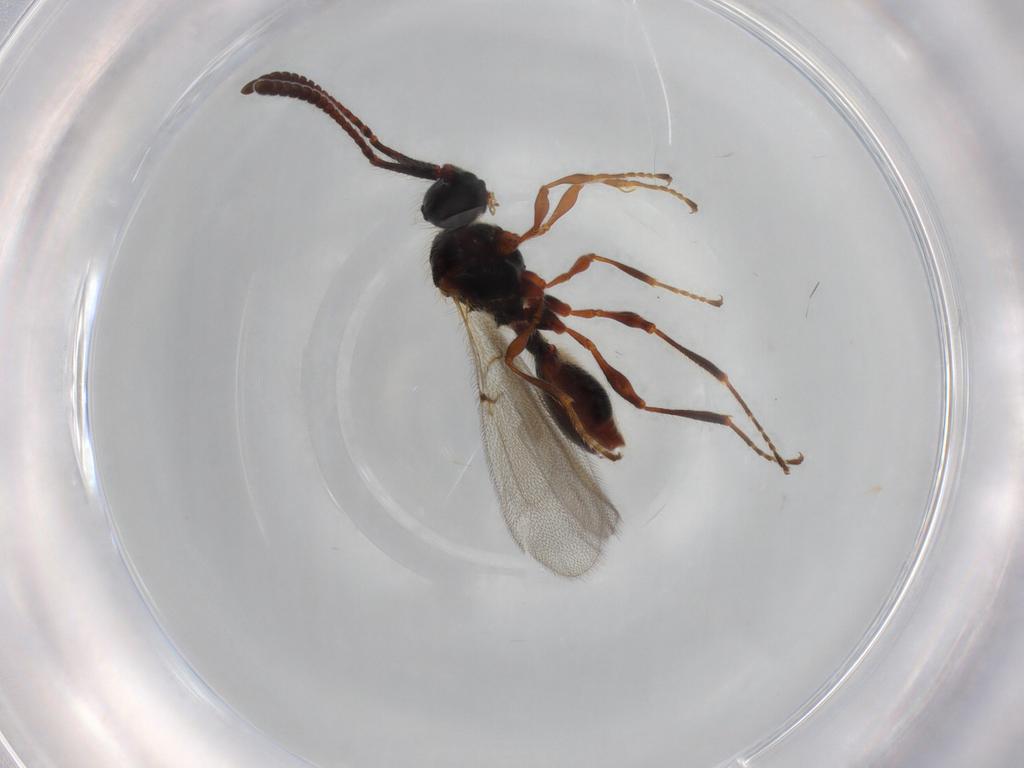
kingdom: Animalia
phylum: Arthropoda
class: Insecta
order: Hymenoptera
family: Diapriidae
